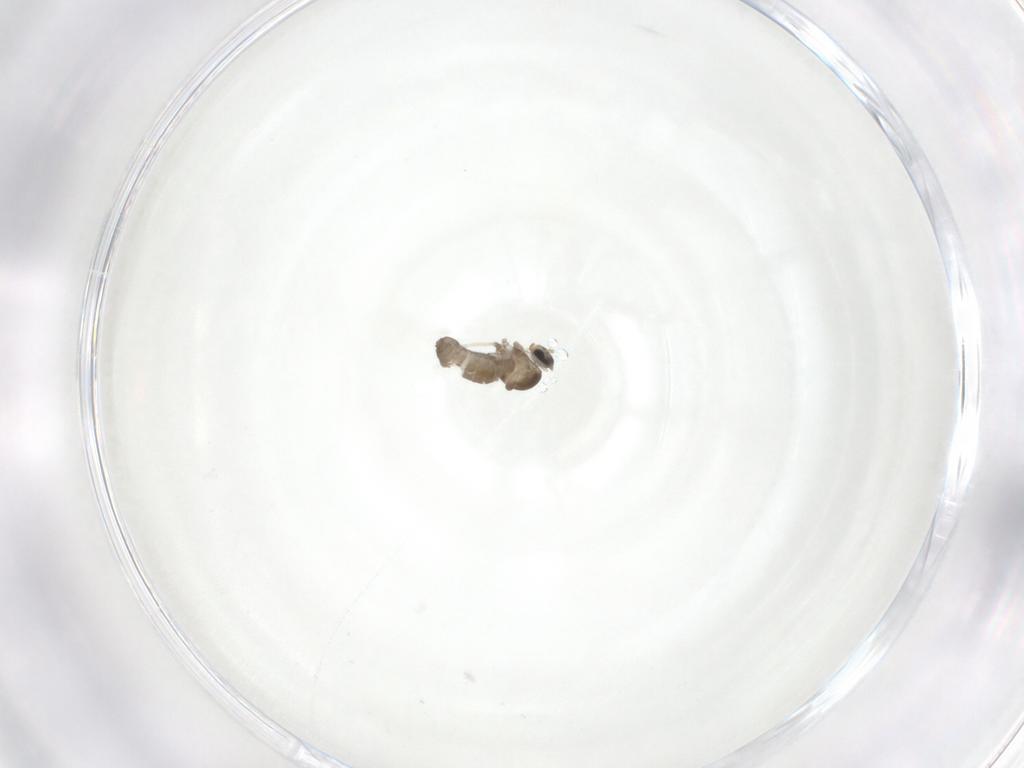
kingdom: Animalia
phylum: Arthropoda
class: Insecta
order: Diptera
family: Cecidomyiidae
